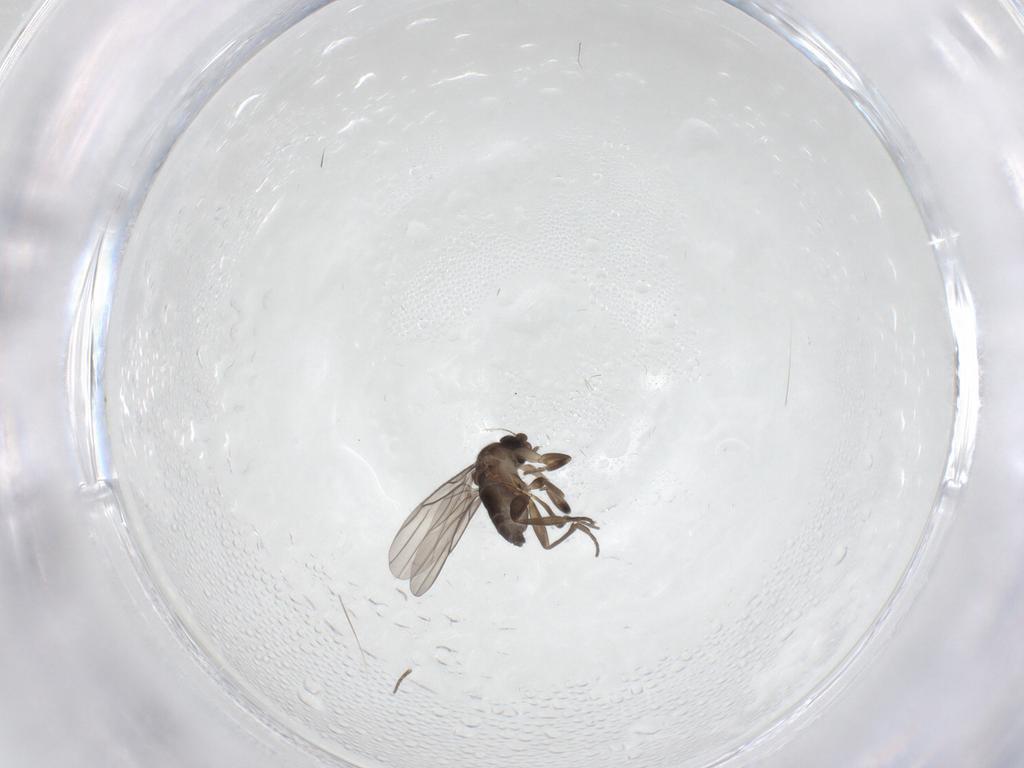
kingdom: Animalia
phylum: Arthropoda
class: Insecta
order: Diptera
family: Phoridae
